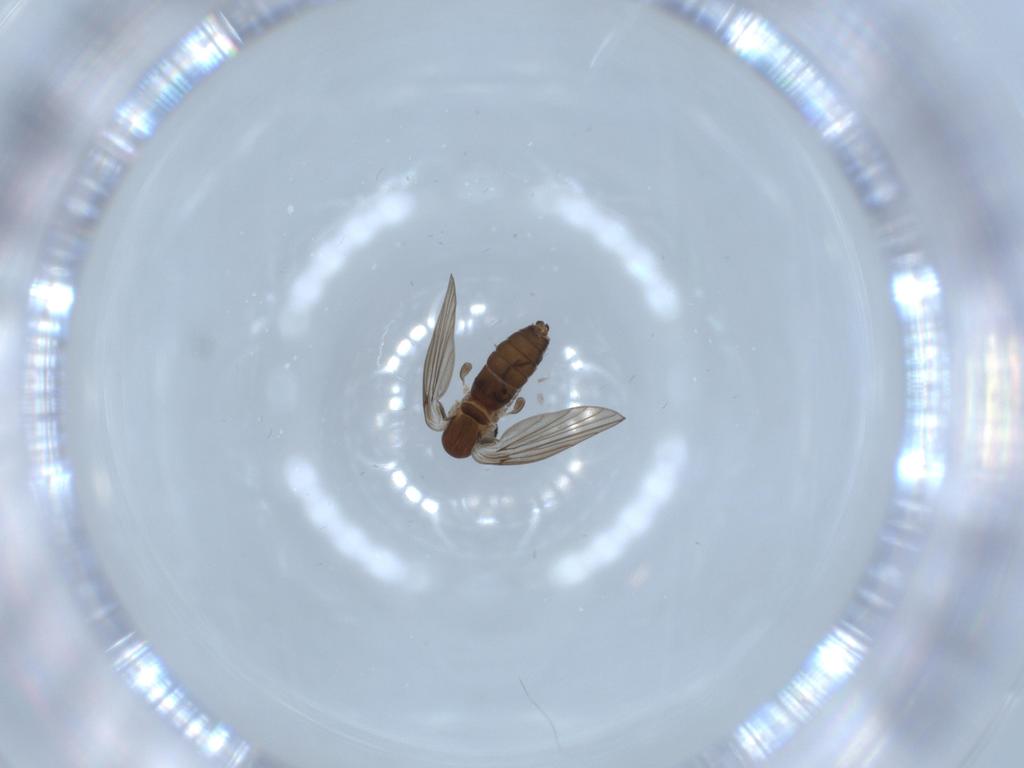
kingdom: Animalia
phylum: Arthropoda
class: Insecta
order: Diptera
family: Psychodidae
